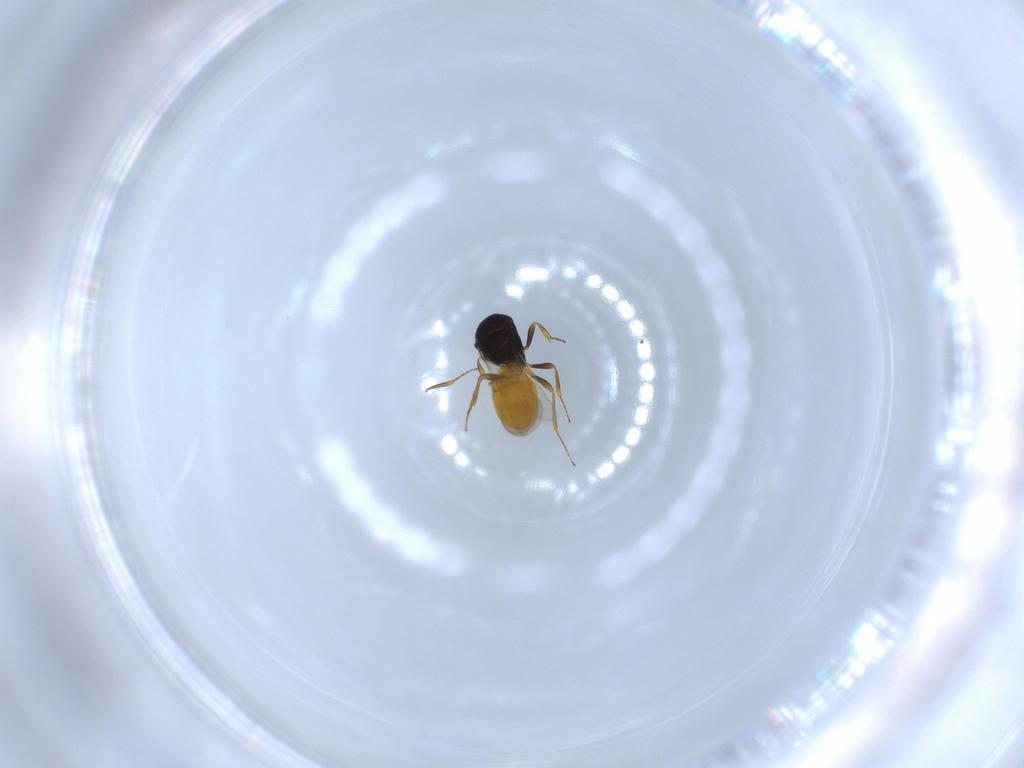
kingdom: Animalia
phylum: Arthropoda
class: Insecta
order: Hymenoptera
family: Scelionidae
